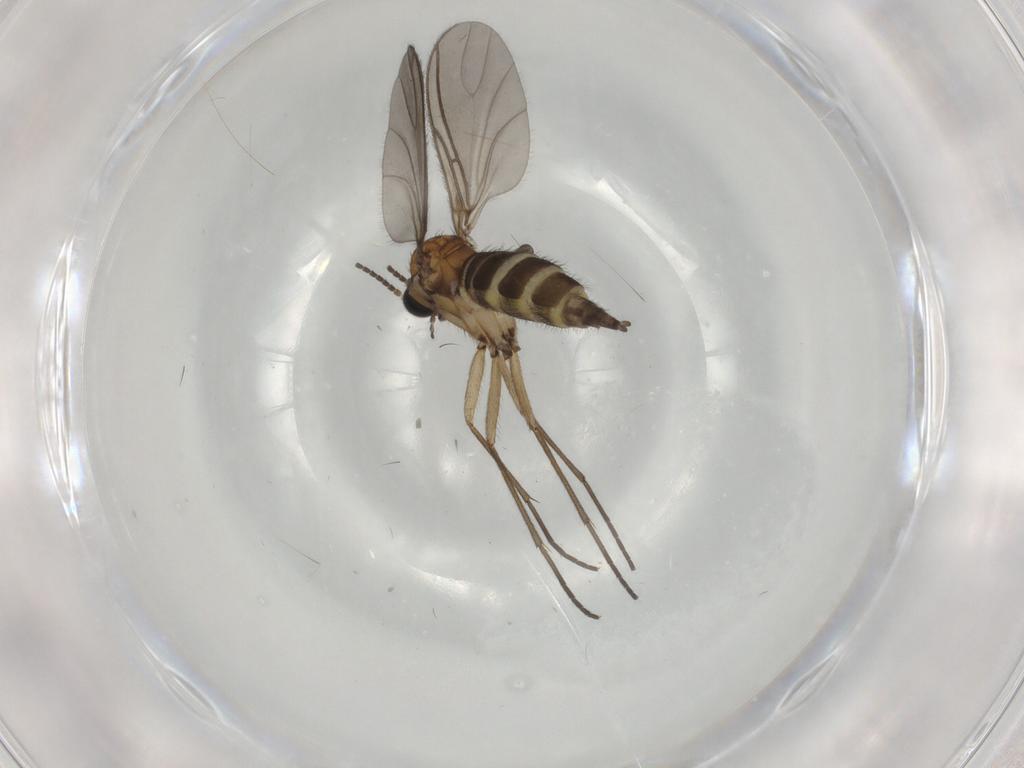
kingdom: Animalia
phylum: Arthropoda
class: Insecta
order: Diptera
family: Sciaridae
